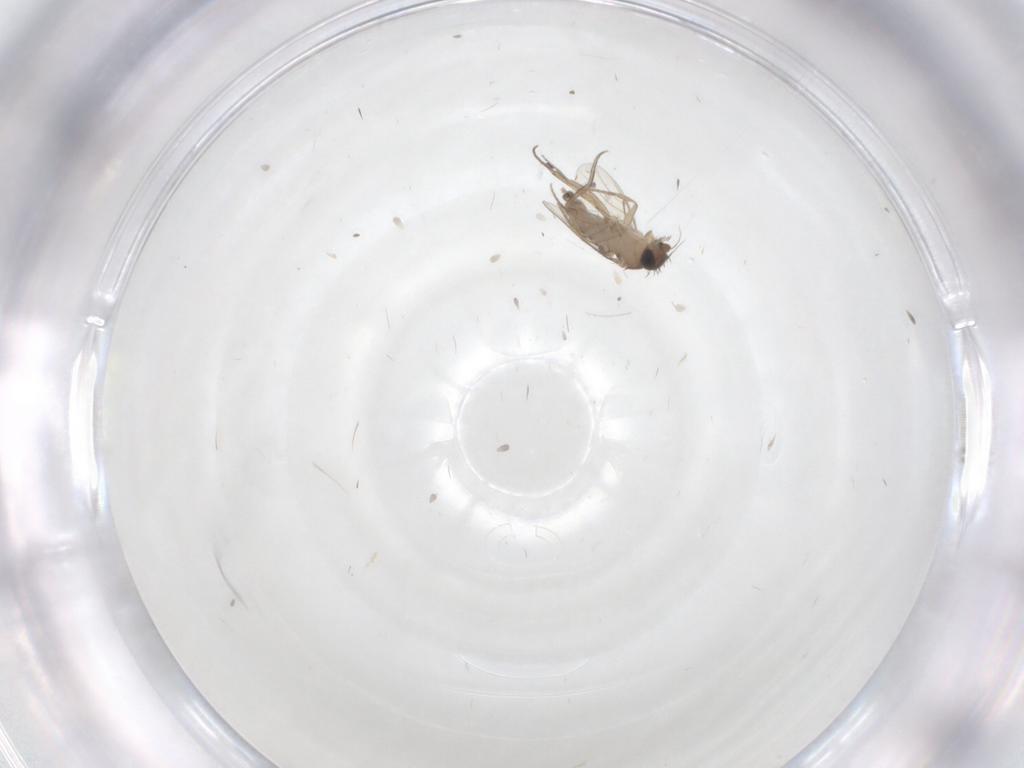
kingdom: Animalia
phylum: Arthropoda
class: Insecta
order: Diptera
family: Phoridae
